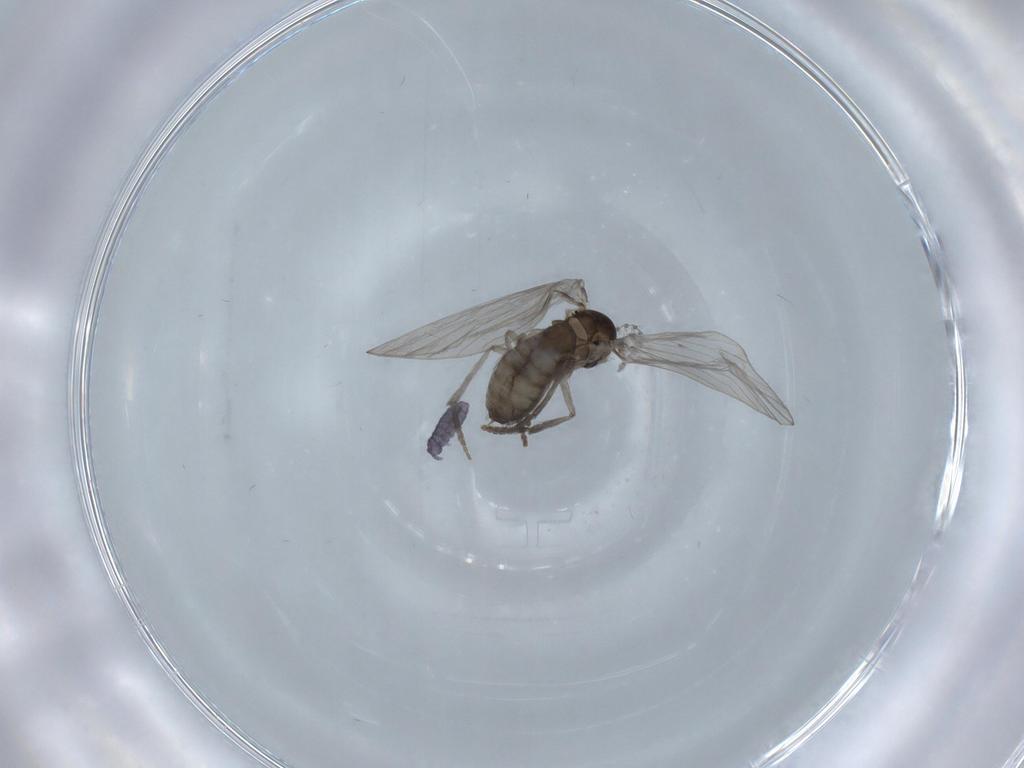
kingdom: Animalia
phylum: Arthropoda
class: Insecta
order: Diptera
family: Psychodidae
